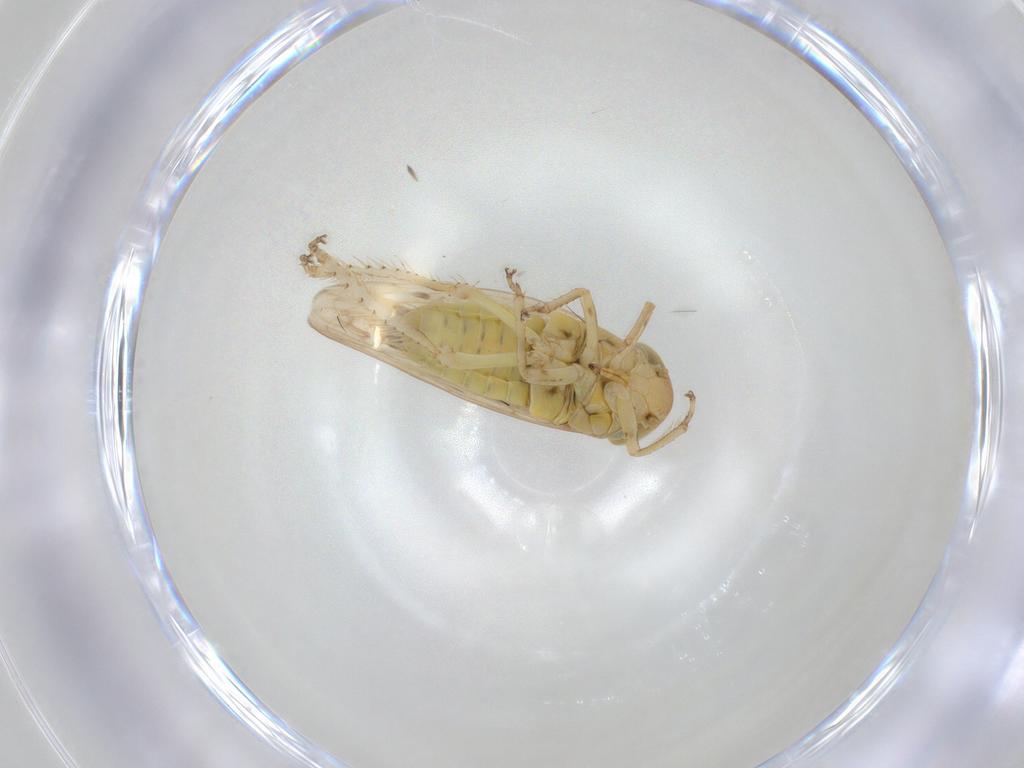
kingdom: Animalia
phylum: Arthropoda
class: Insecta
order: Hemiptera
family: Cicadellidae
